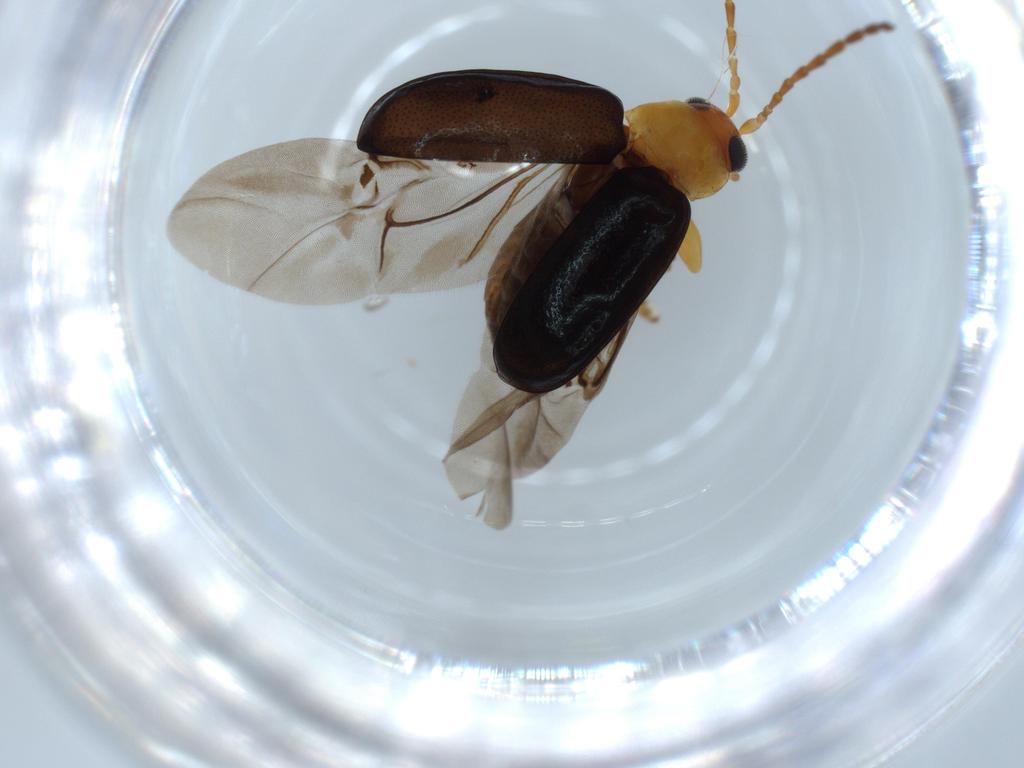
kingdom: Animalia
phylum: Arthropoda
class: Insecta
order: Coleoptera
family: Chrysomelidae
